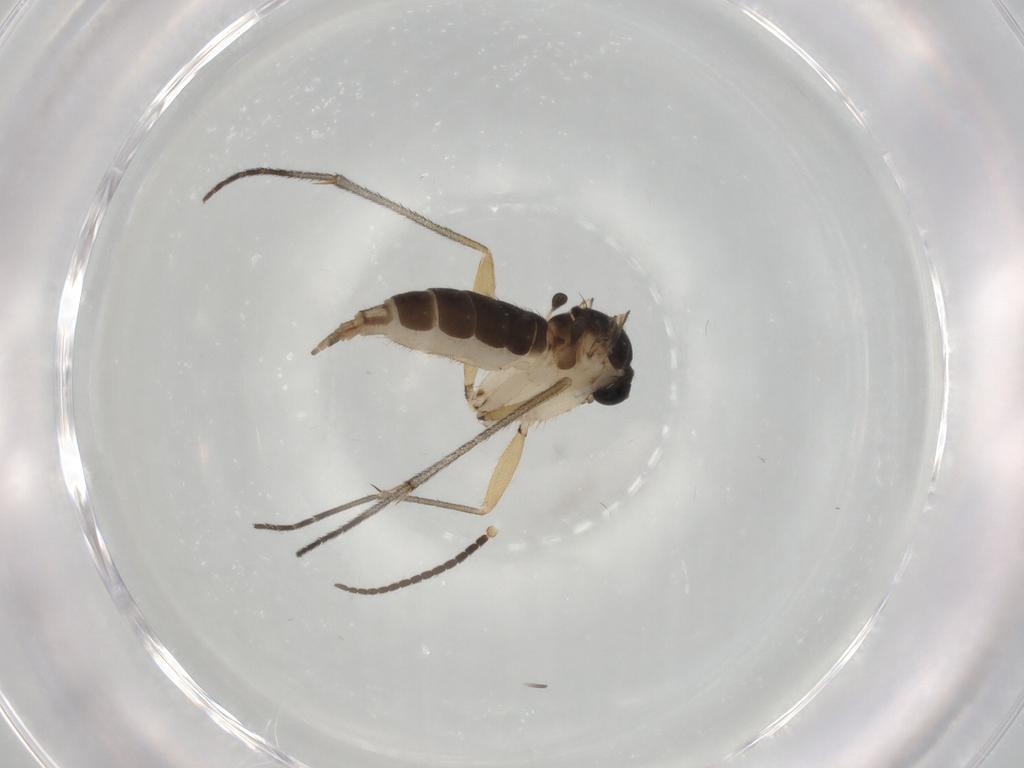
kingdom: Animalia
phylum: Arthropoda
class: Insecta
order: Diptera
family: Sciaridae
